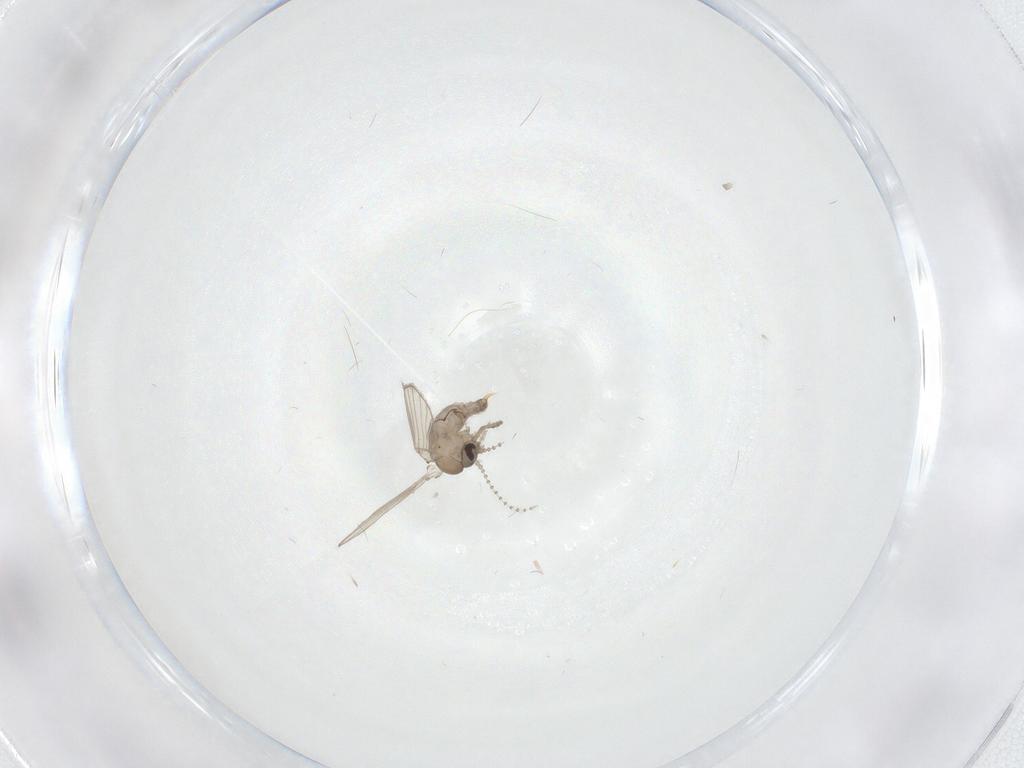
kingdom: Animalia
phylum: Arthropoda
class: Insecta
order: Diptera
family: Psychodidae
